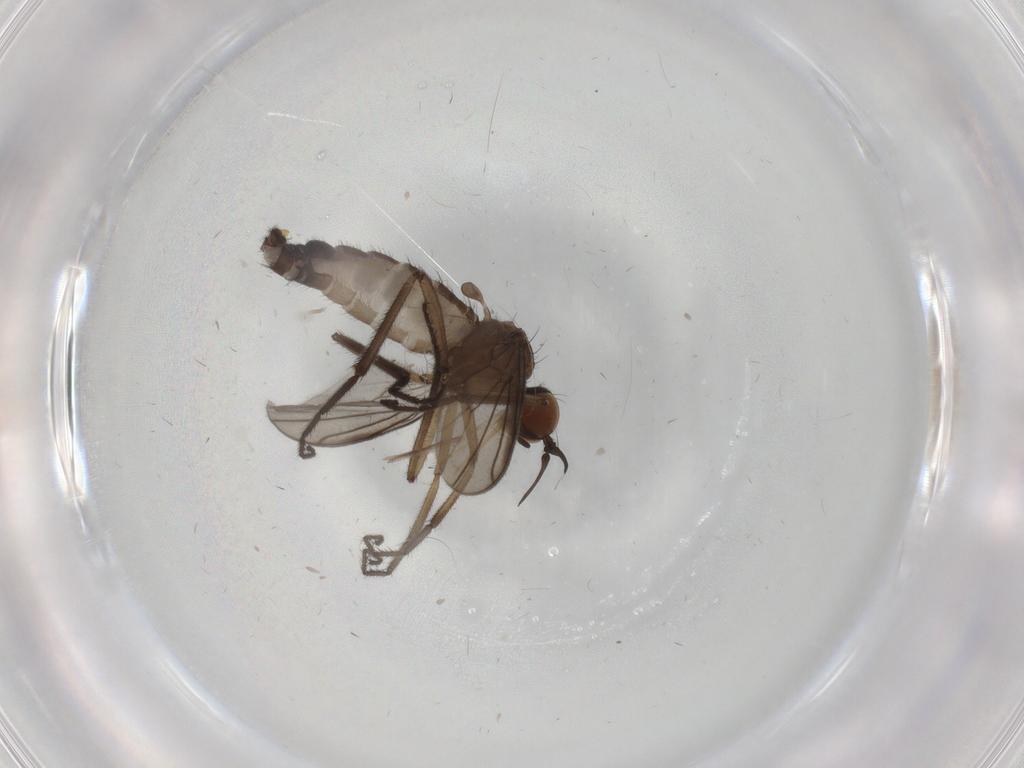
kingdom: Animalia
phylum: Arthropoda
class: Insecta
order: Diptera
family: Empididae
